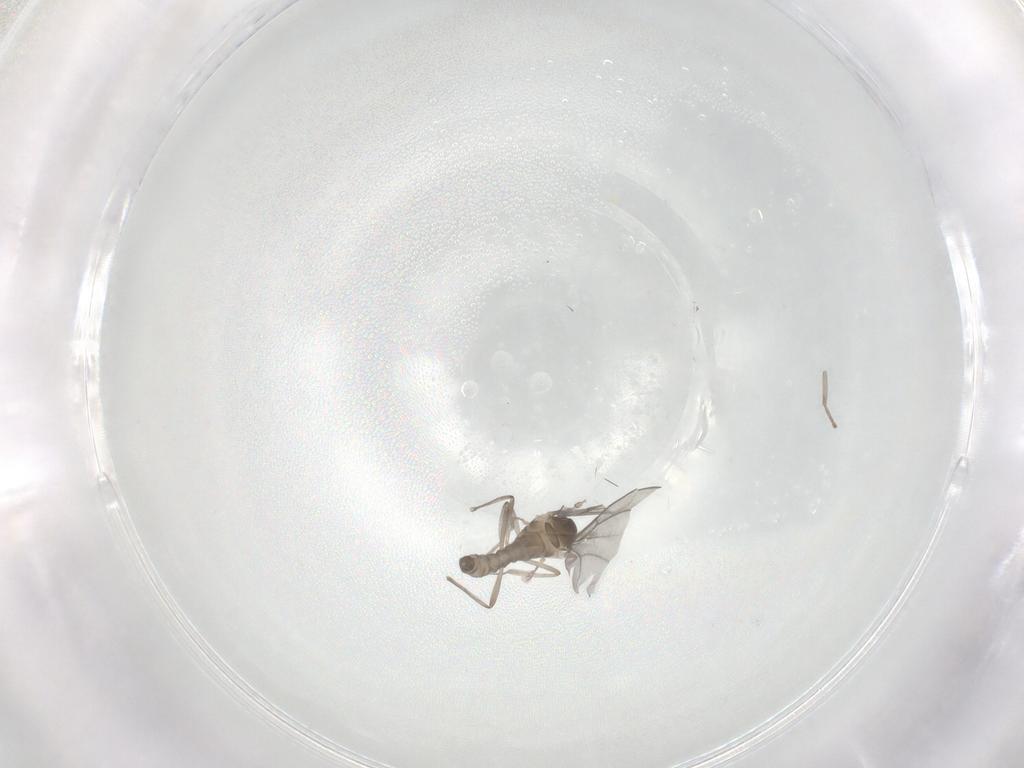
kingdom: Animalia
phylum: Arthropoda
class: Insecta
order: Diptera
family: Cecidomyiidae
